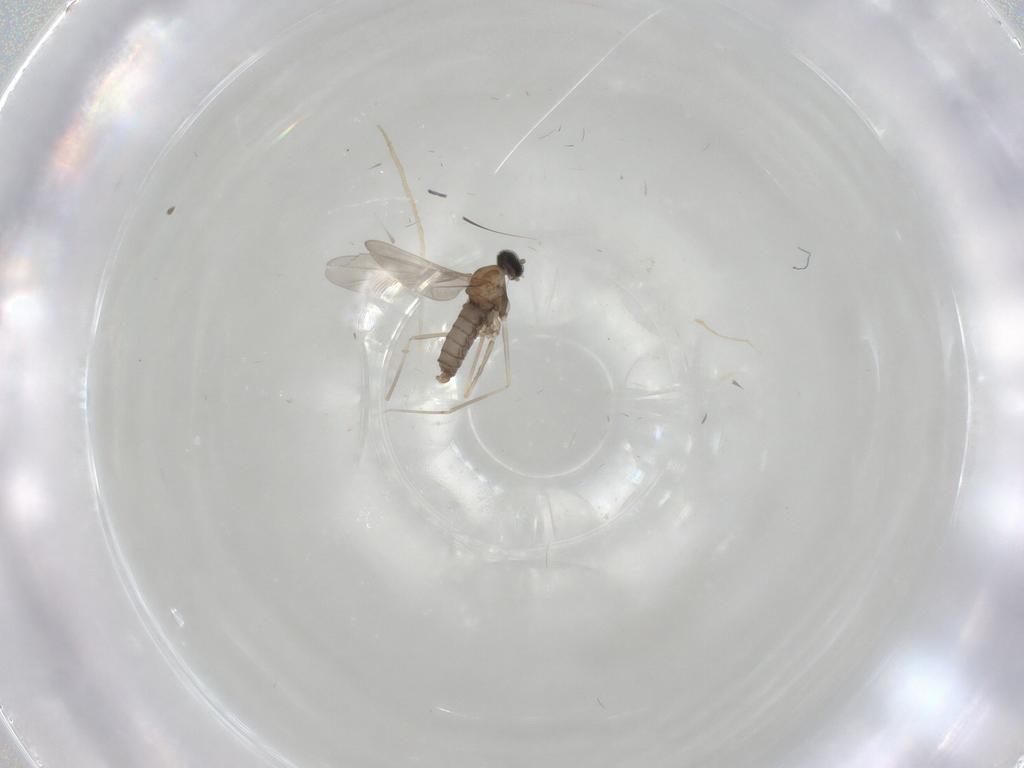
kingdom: Animalia
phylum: Arthropoda
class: Insecta
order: Diptera
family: Cecidomyiidae
